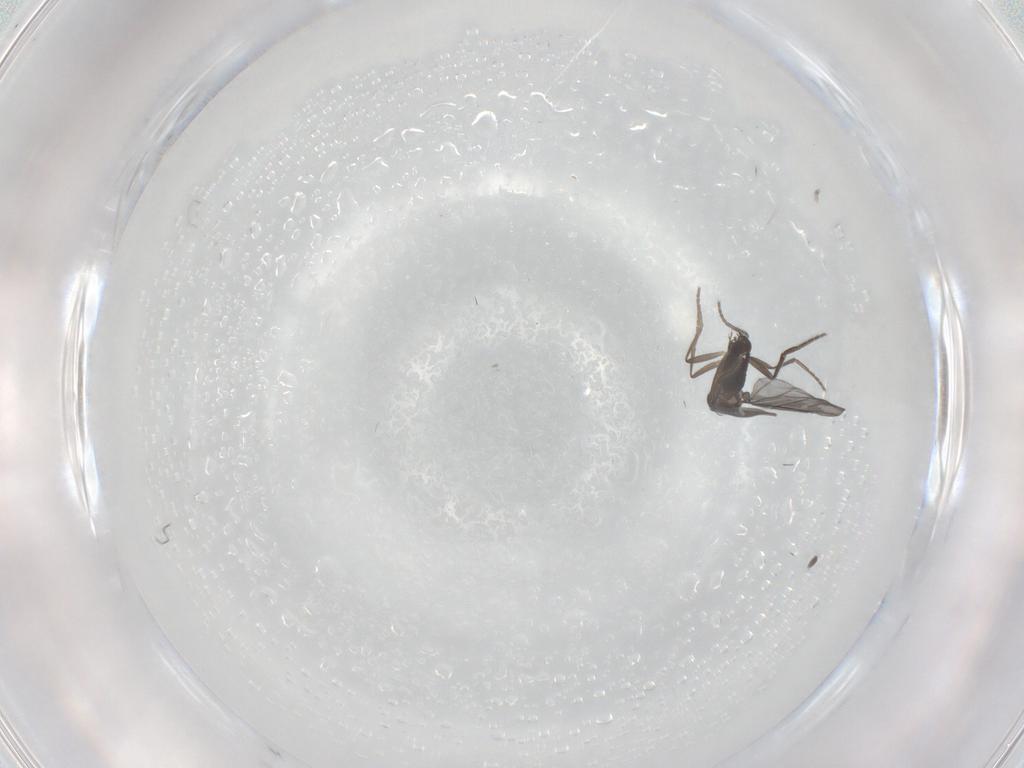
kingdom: Animalia
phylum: Arthropoda
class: Insecta
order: Diptera
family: Phoridae
